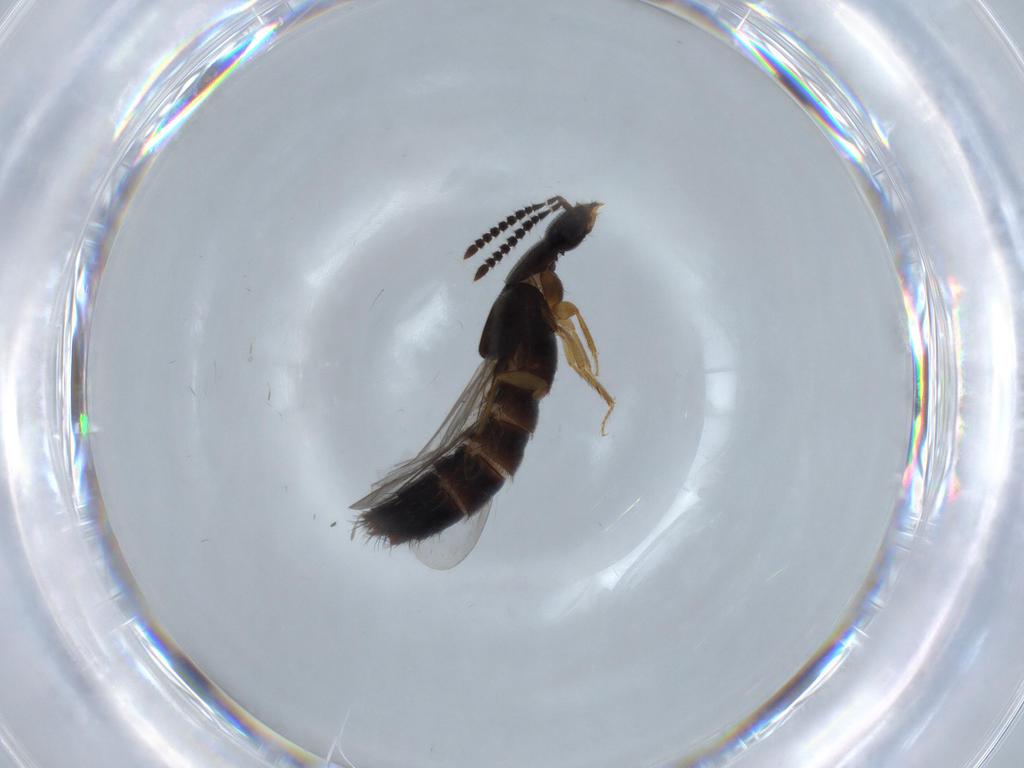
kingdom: Animalia
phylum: Arthropoda
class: Insecta
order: Coleoptera
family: Staphylinidae
